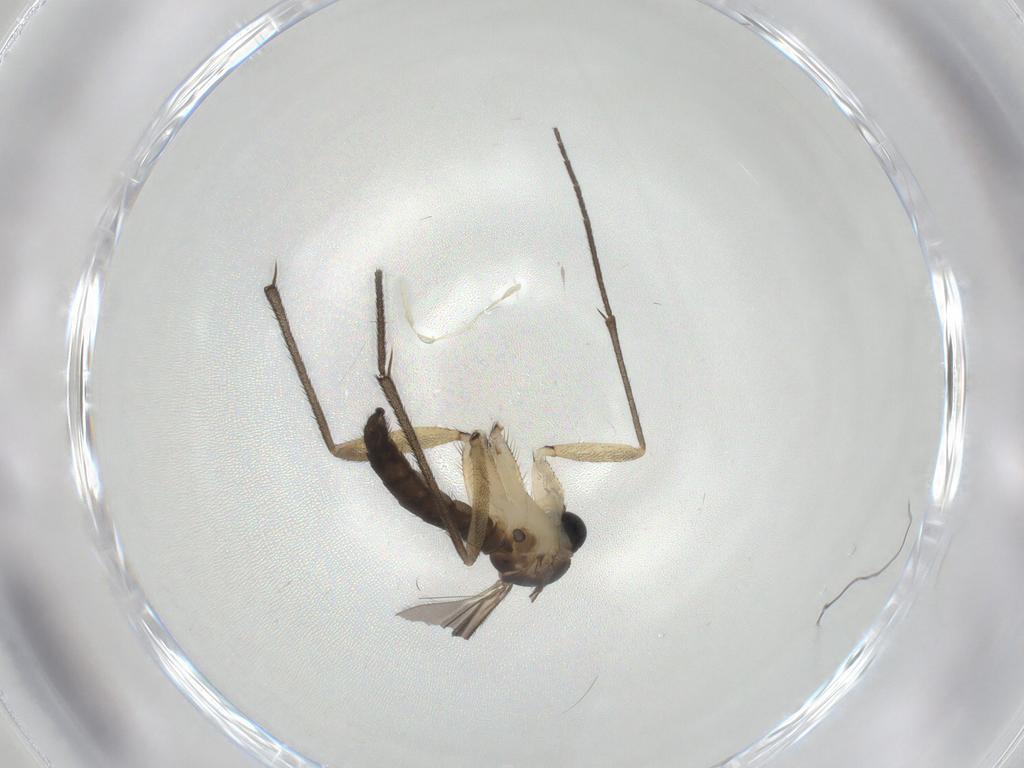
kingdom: Animalia
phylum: Arthropoda
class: Insecta
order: Diptera
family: Sciaridae
